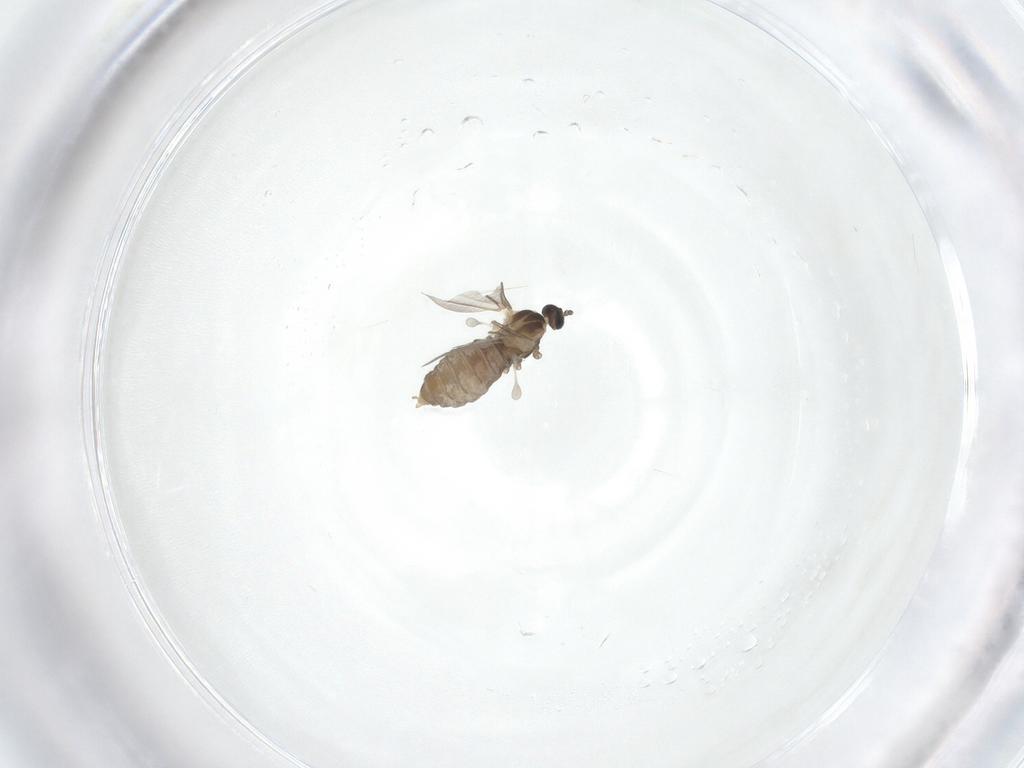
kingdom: Animalia
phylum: Arthropoda
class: Insecta
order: Diptera
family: Cecidomyiidae
